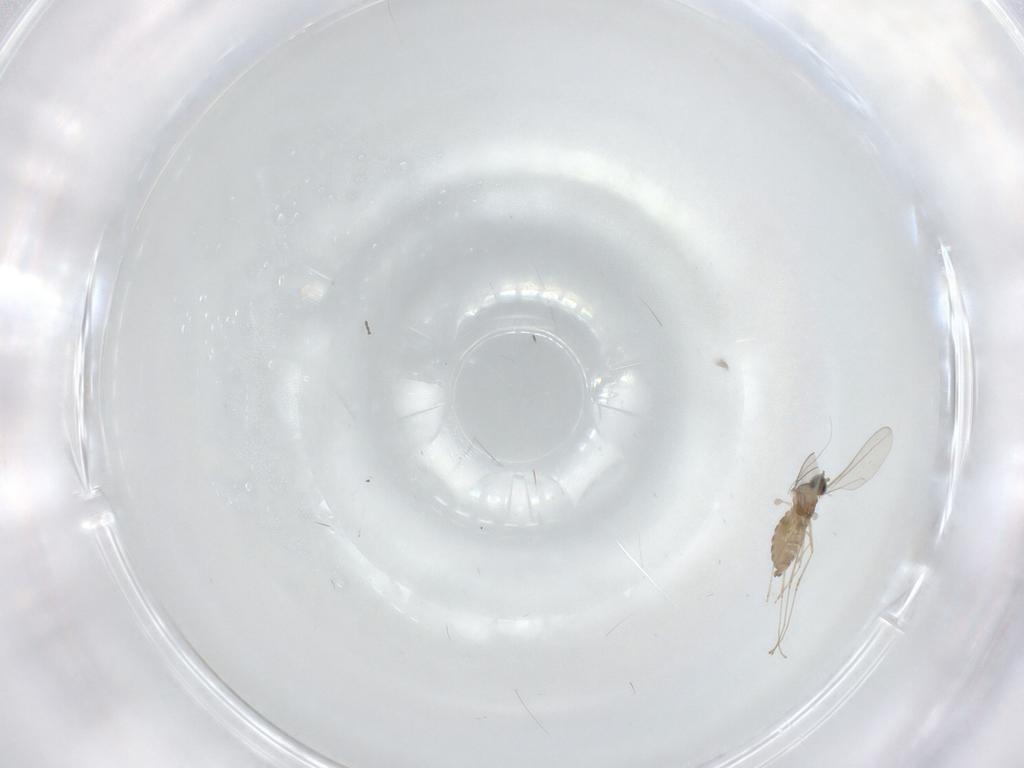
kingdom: Animalia
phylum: Arthropoda
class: Insecta
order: Diptera
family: Cecidomyiidae
